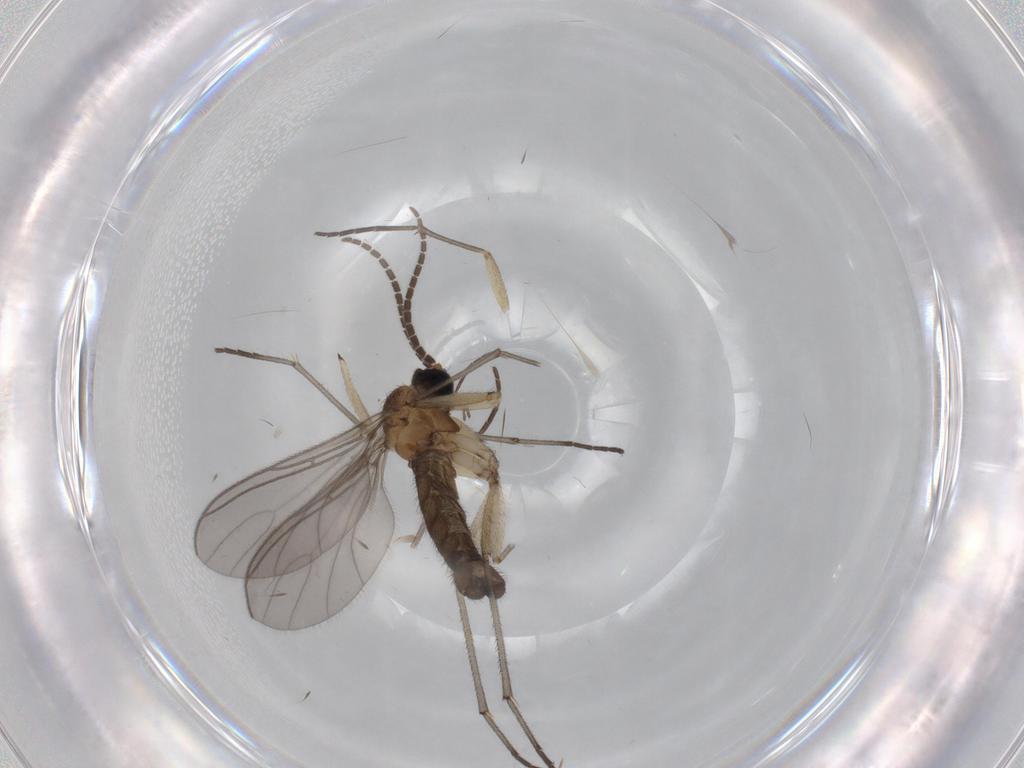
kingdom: Animalia
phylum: Arthropoda
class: Insecta
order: Diptera
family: Sciaridae
